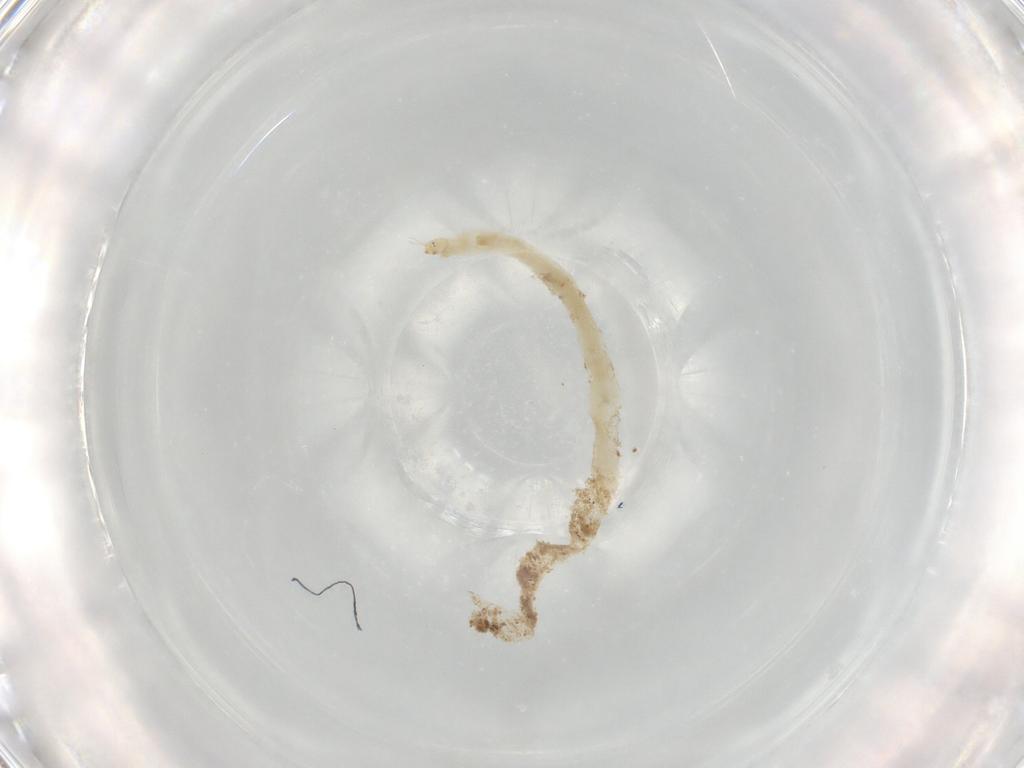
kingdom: Animalia
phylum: Arthropoda
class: Insecta
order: Diptera
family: Chironomidae
